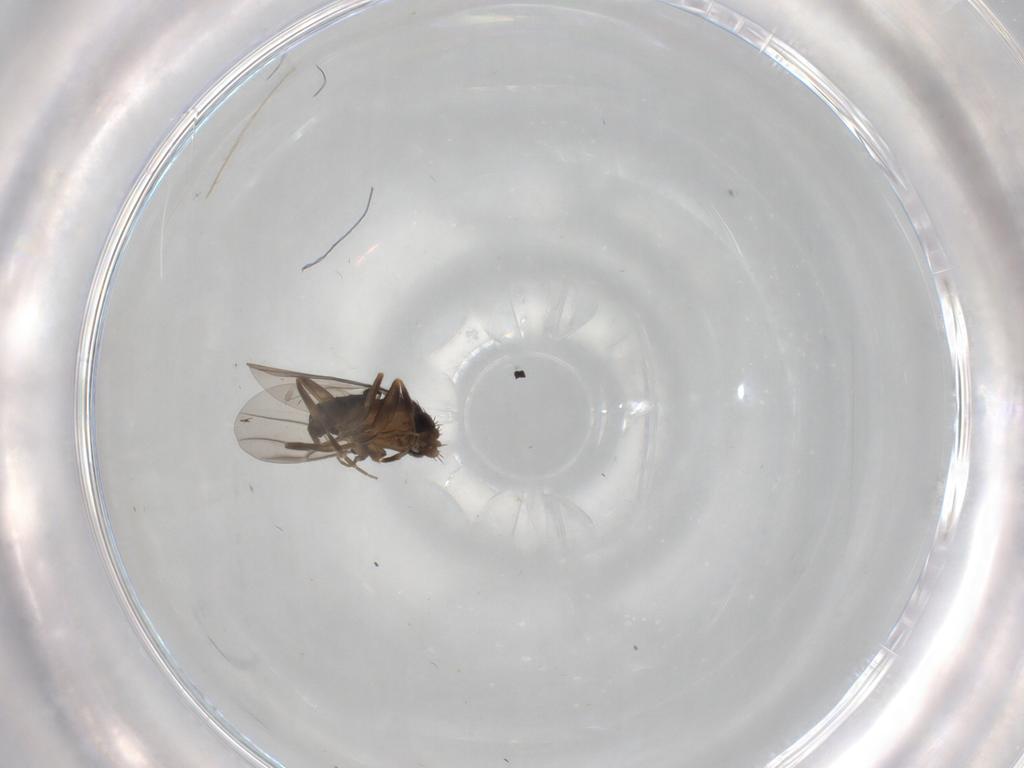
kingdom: Animalia
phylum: Arthropoda
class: Insecta
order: Diptera
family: Phoridae
